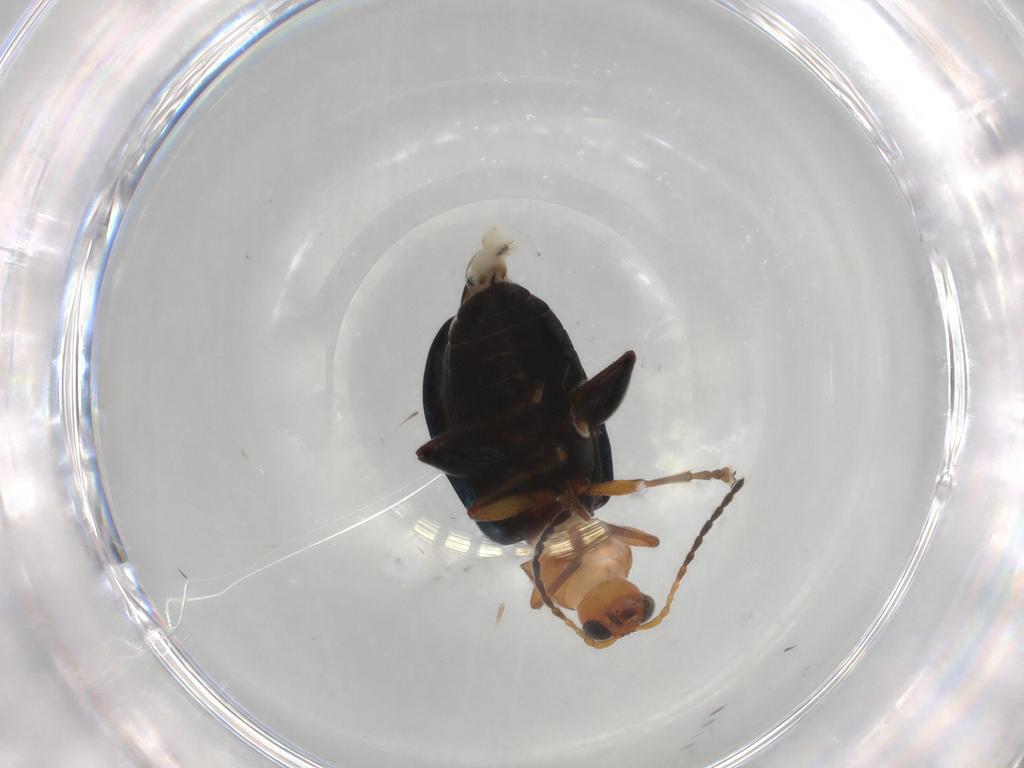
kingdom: Animalia
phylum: Arthropoda
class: Insecta
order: Coleoptera
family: Chrysomelidae
